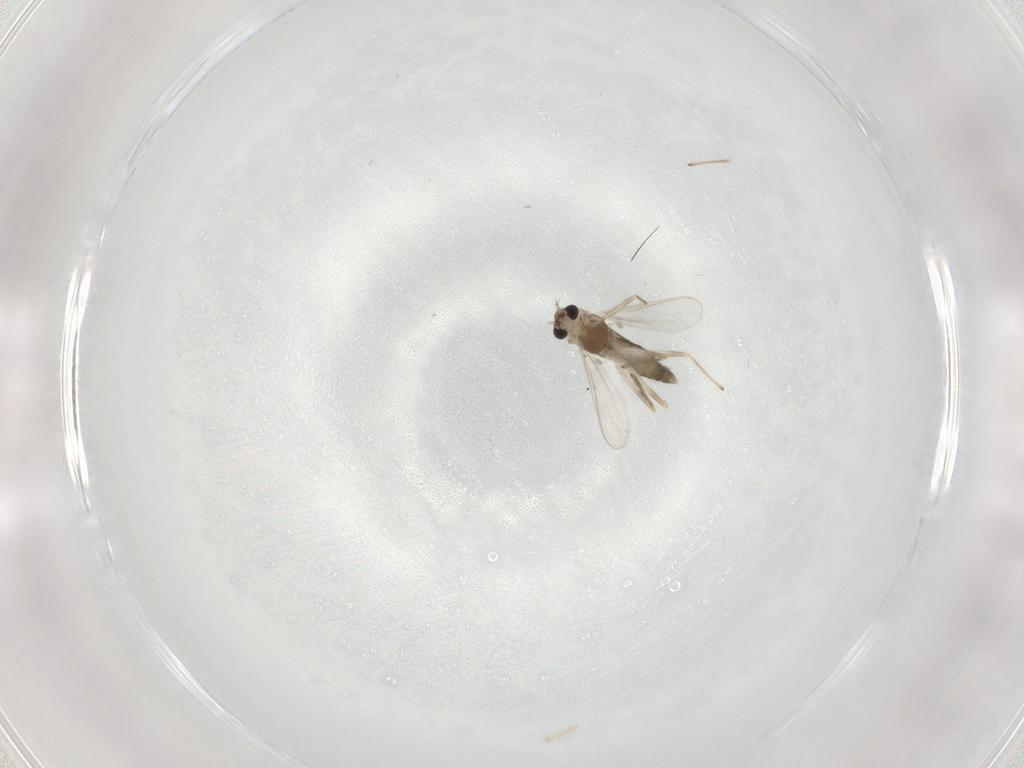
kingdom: Animalia
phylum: Arthropoda
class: Insecta
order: Diptera
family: Chironomidae
